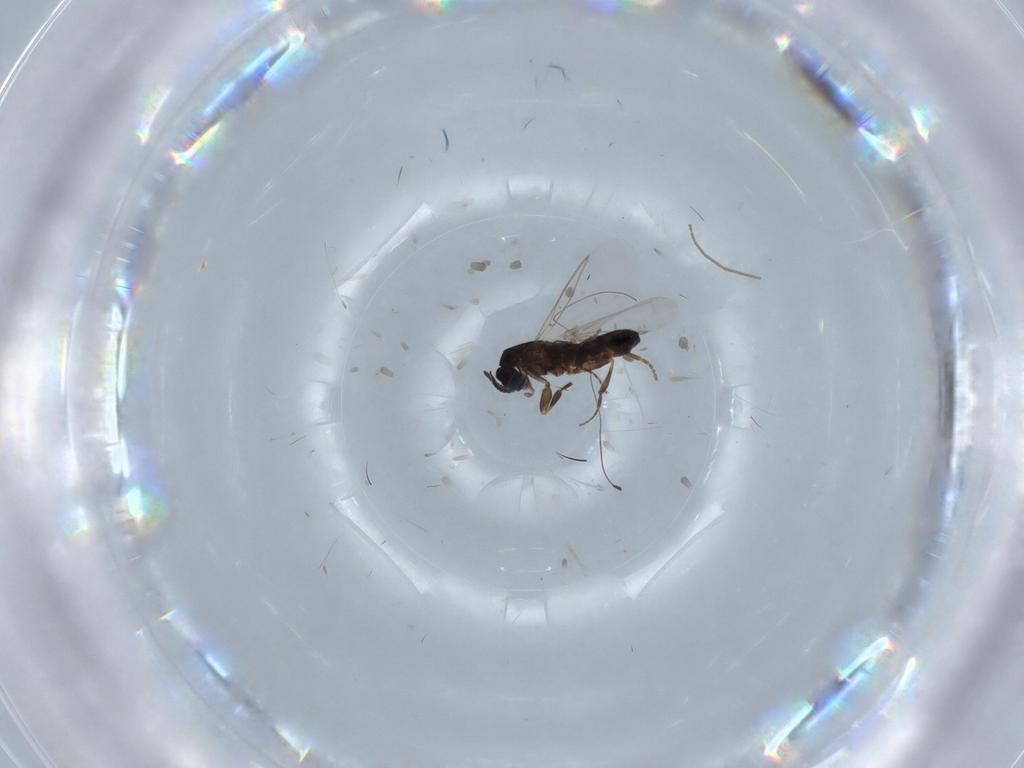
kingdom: Animalia
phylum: Arthropoda
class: Insecta
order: Diptera
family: Scatopsidae
